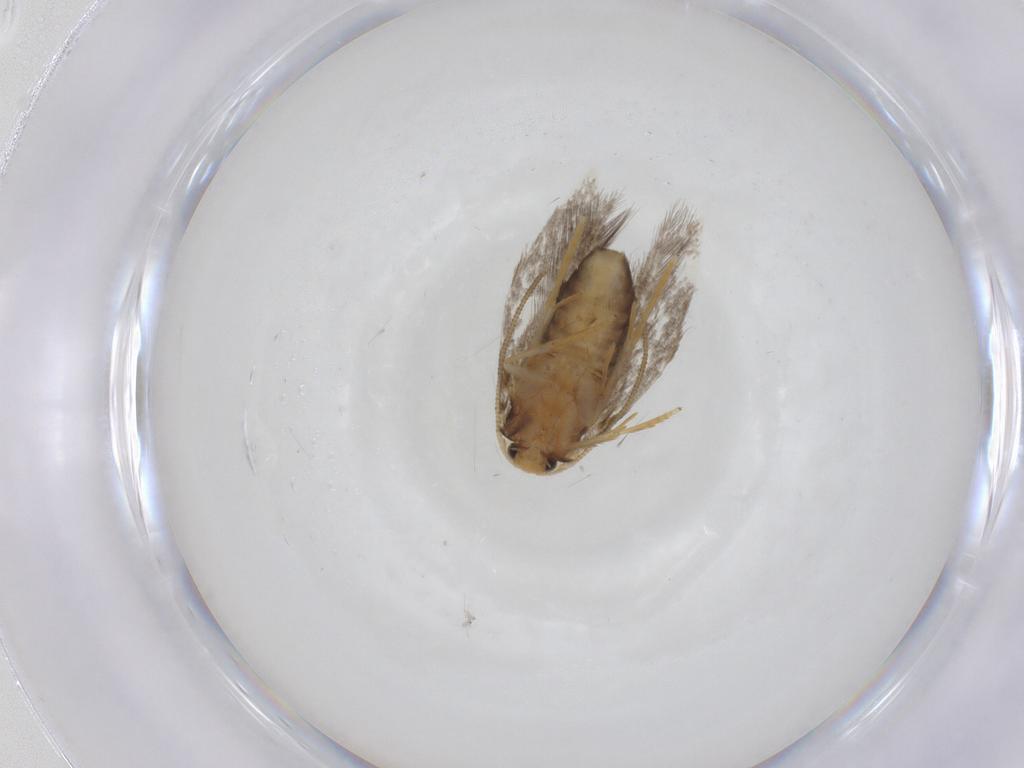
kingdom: Animalia
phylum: Arthropoda
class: Insecta
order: Lepidoptera
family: Nepticulidae
